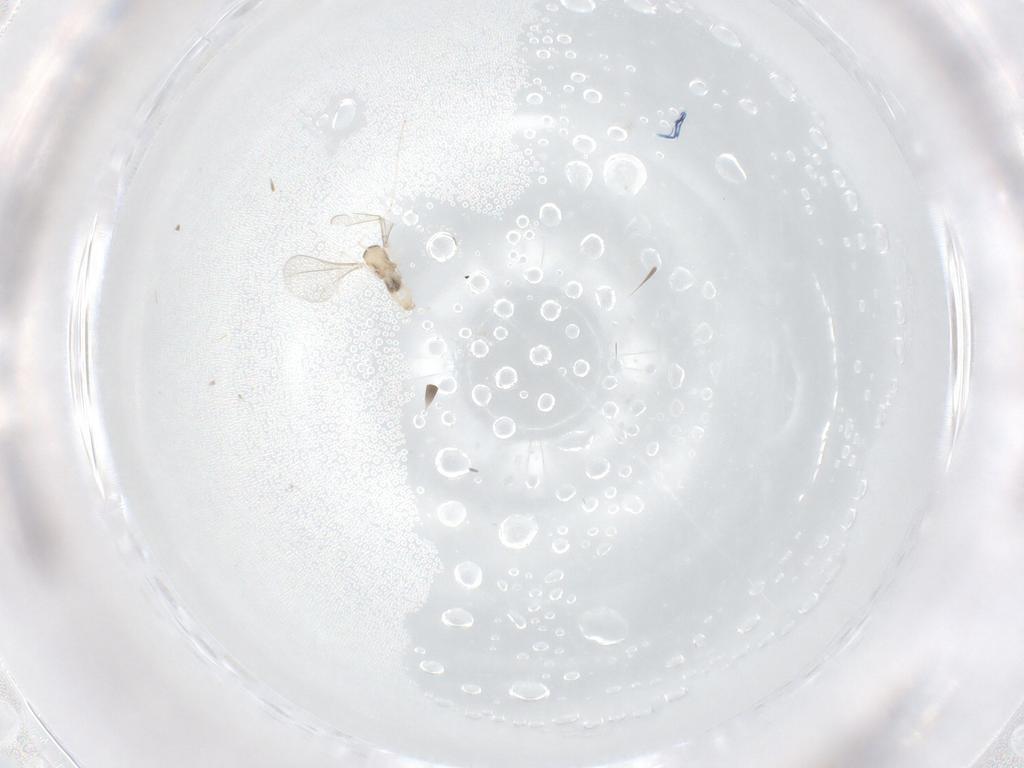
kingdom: Animalia
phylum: Arthropoda
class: Insecta
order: Diptera
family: Cecidomyiidae
